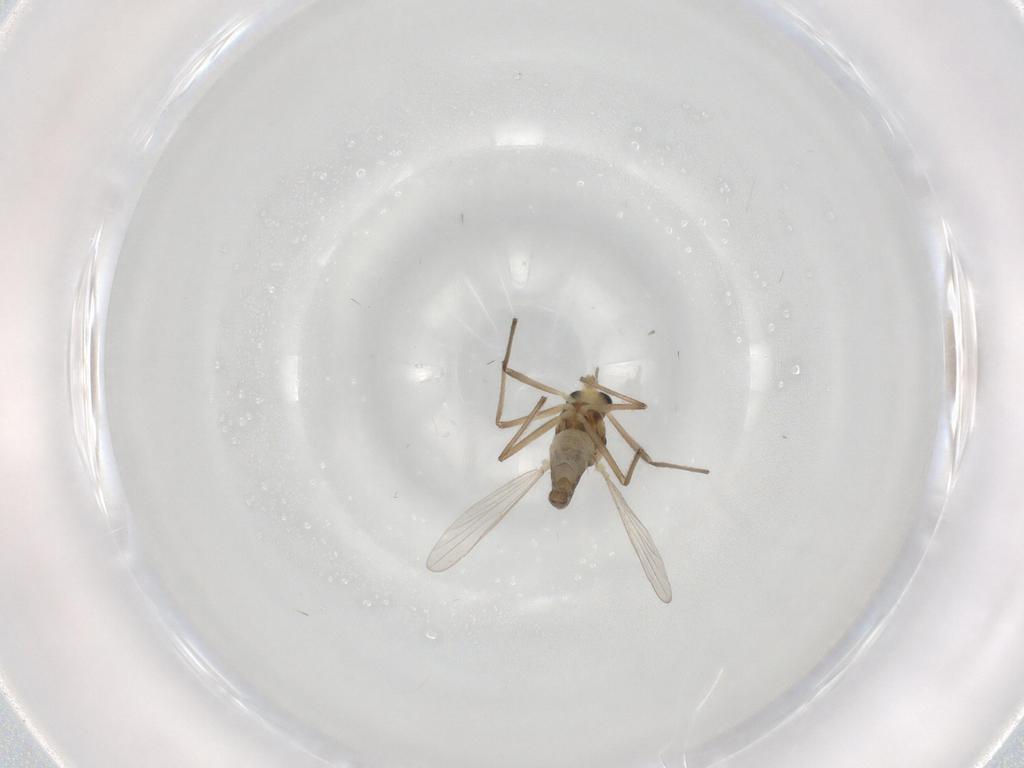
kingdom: Animalia
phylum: Arthropoda
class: Insecta
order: Diptera
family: Chironomidae
